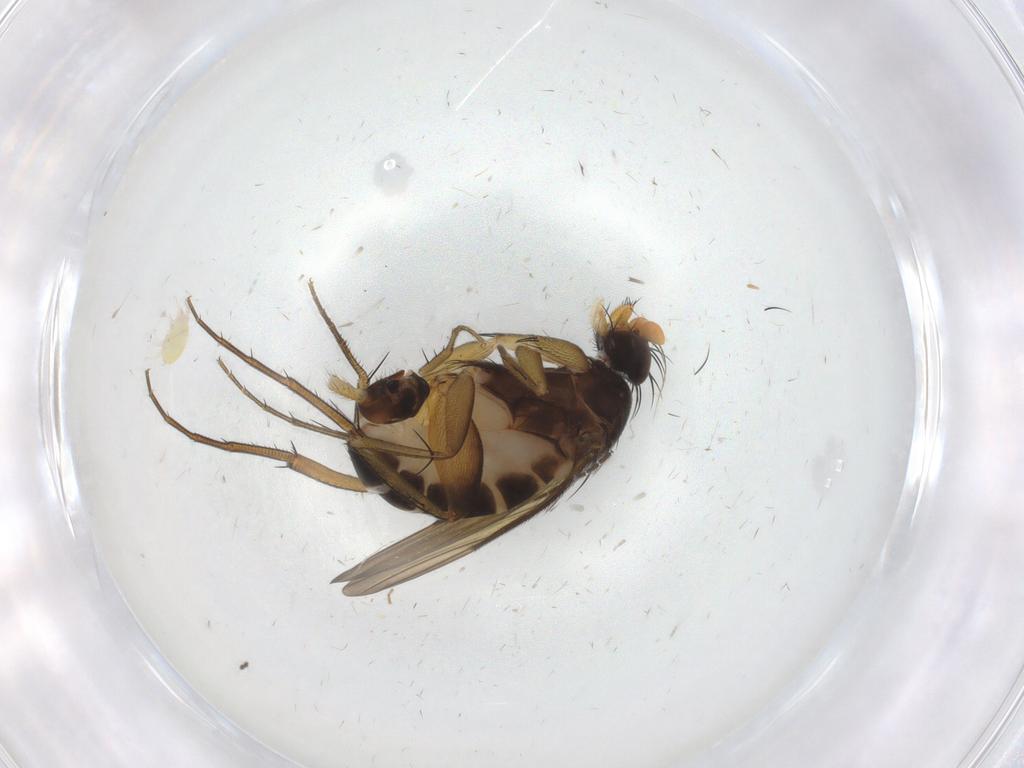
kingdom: Animalia
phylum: Arthropoda
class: Insecta
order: Diptera
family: Phoridae
